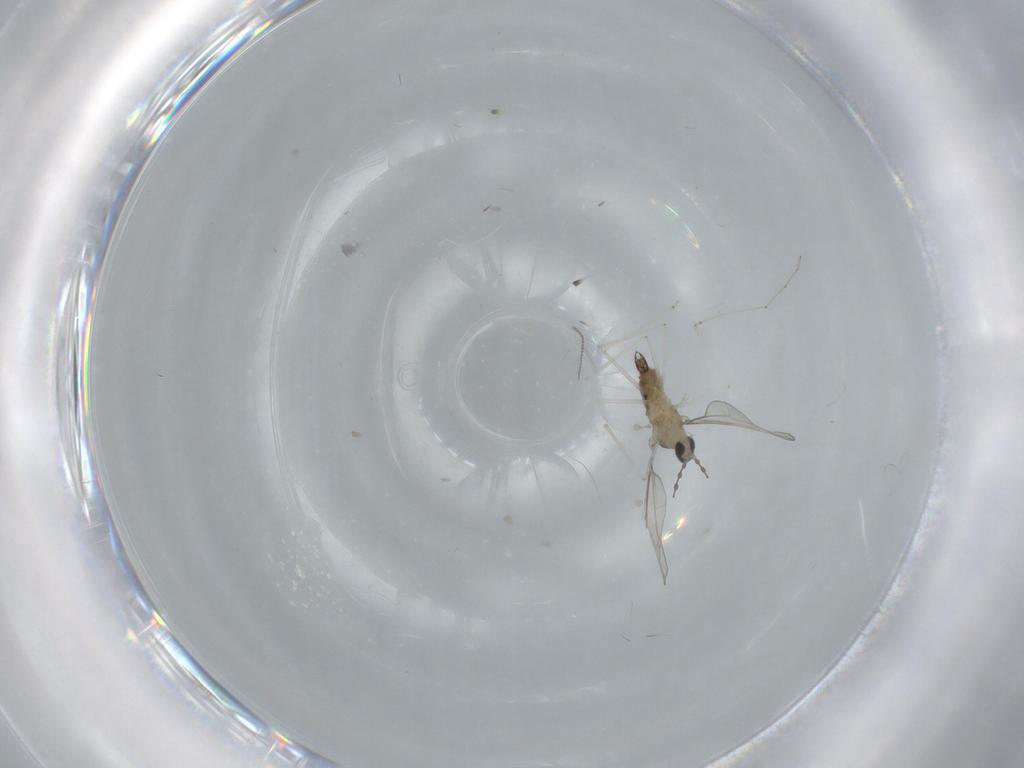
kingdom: Animalia
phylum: Arthropoda
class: Insecta
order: Diptera
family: Cecidomyiidae
